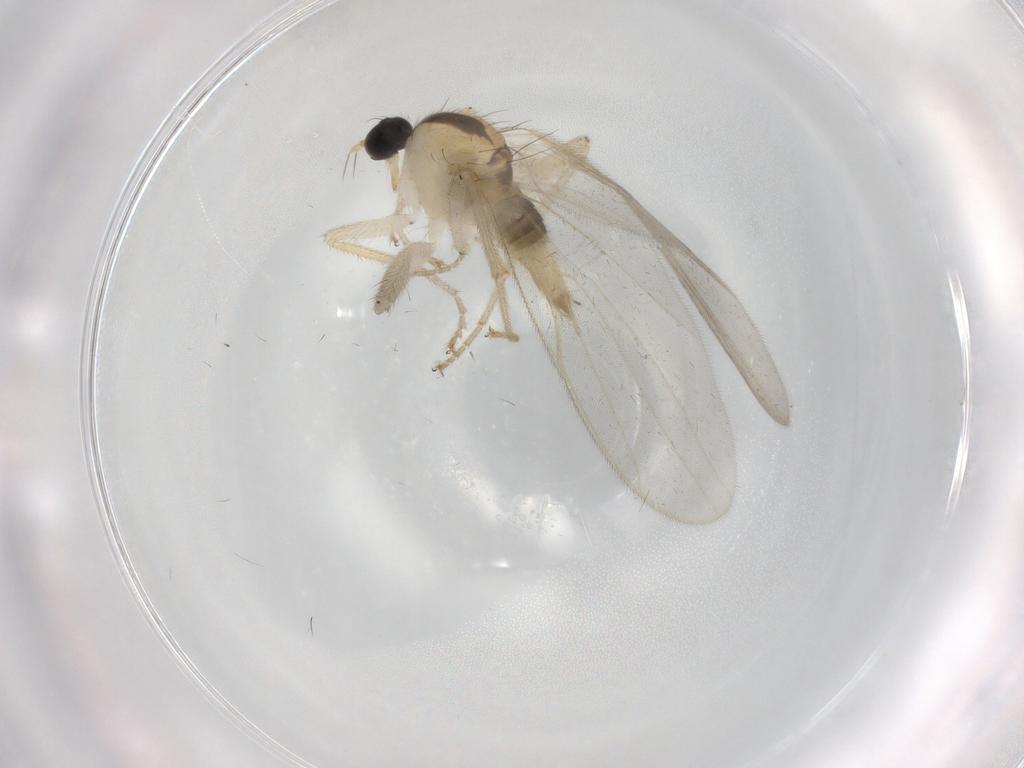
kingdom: Animalia
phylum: Arthropoda
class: Insecta
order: Diptera
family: Hybotidae
